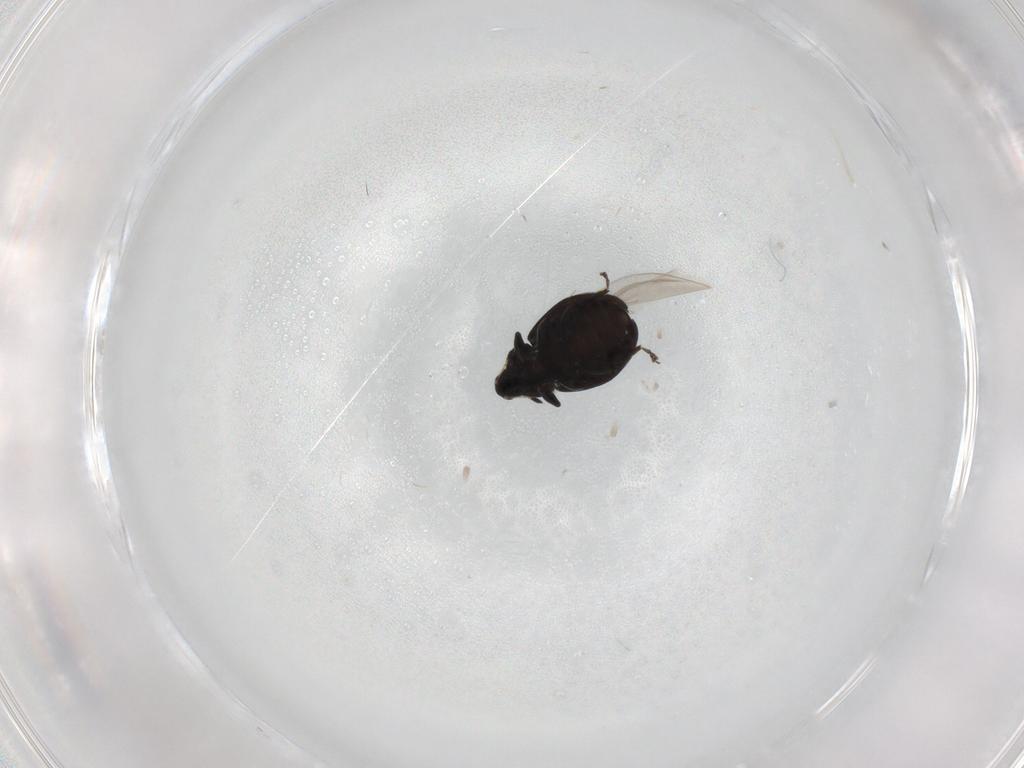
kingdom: Animalia
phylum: Arthropoda
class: Insecta
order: Coleoptera
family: Curculionidae
